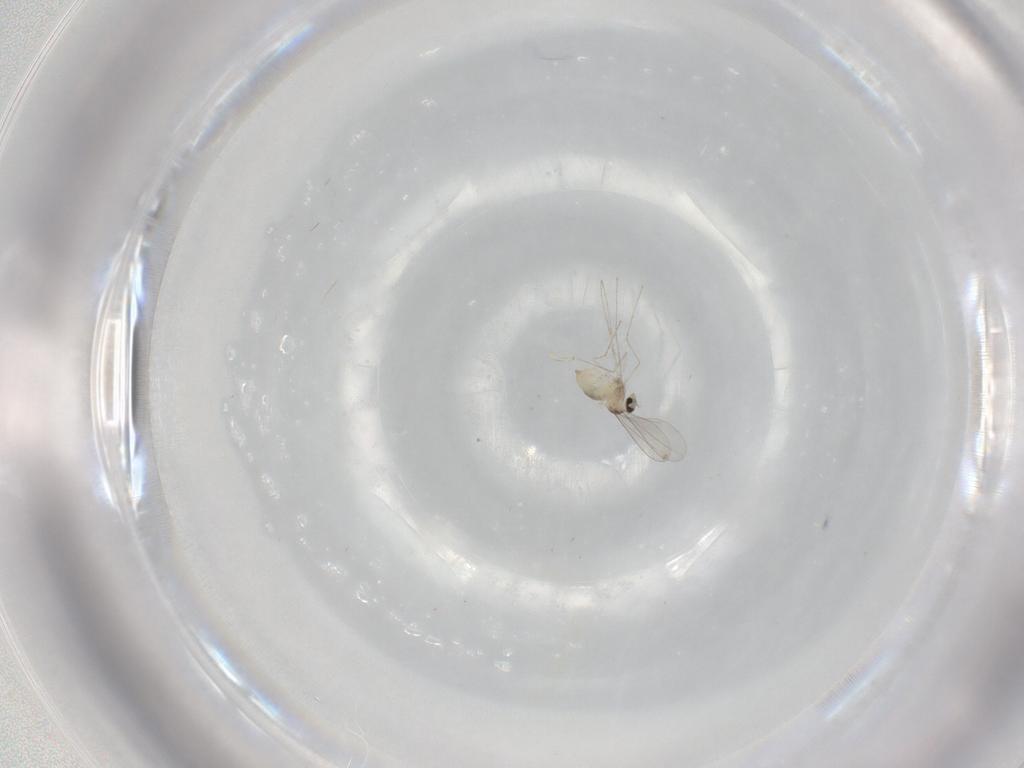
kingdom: Animalia
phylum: Arthropoda
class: Insecta
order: Diptera
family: Cecidomyiidae
